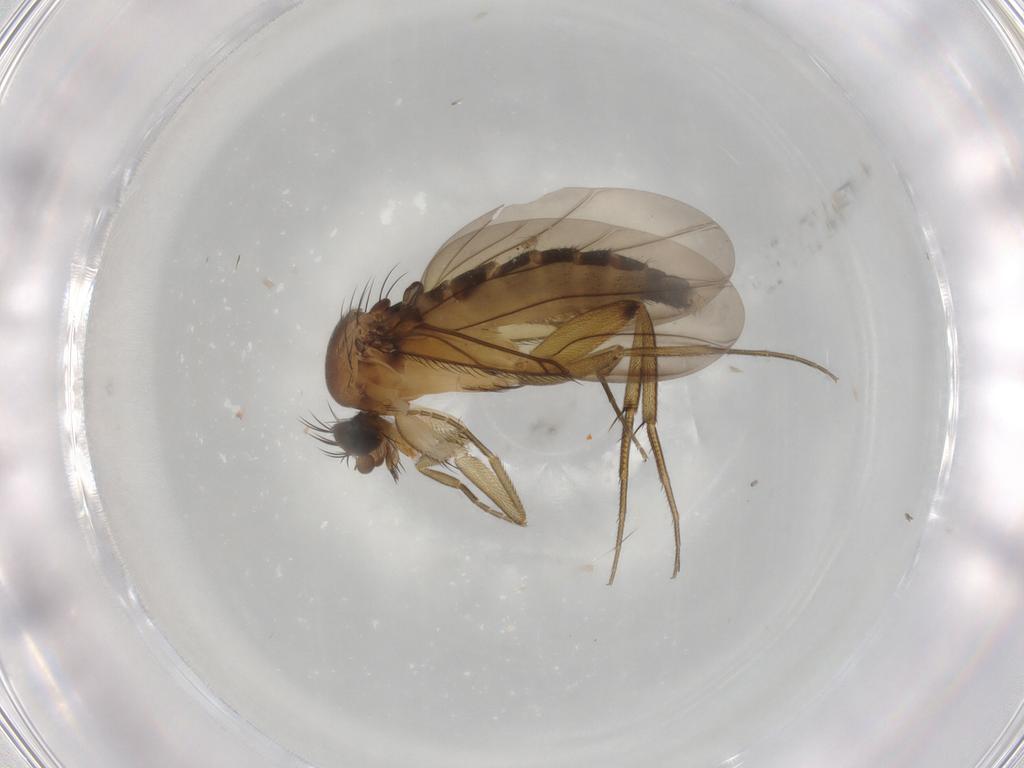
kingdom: Animalia
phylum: Arthropoda
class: Insecta
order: Diptera
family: Phoridae
